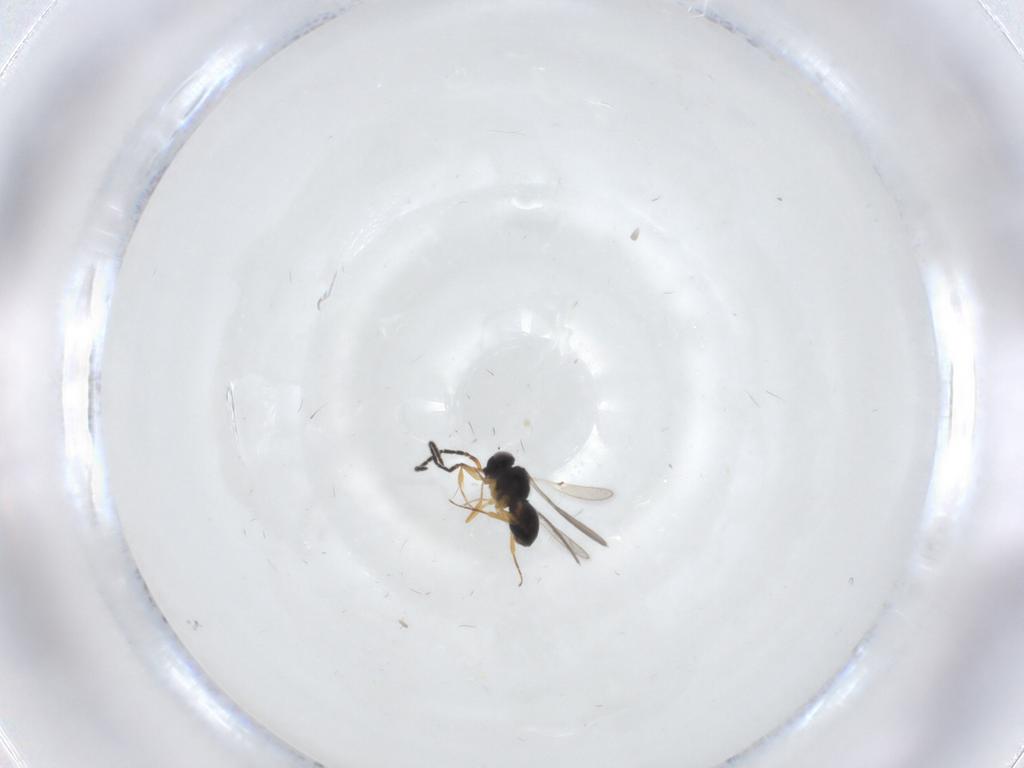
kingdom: Animalia
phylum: Arthropoda
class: Insecta
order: Hymenoptera
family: Scelionidae
